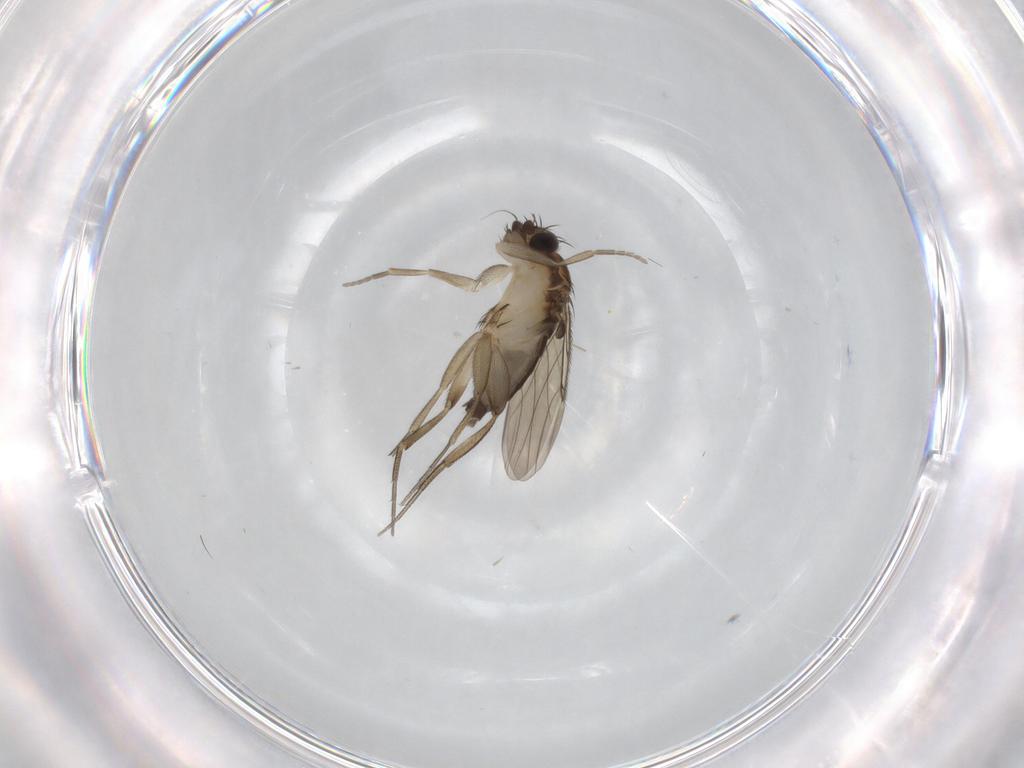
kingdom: Animalia
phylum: Arthropoda
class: Insecta
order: Diptera
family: Phoridae
